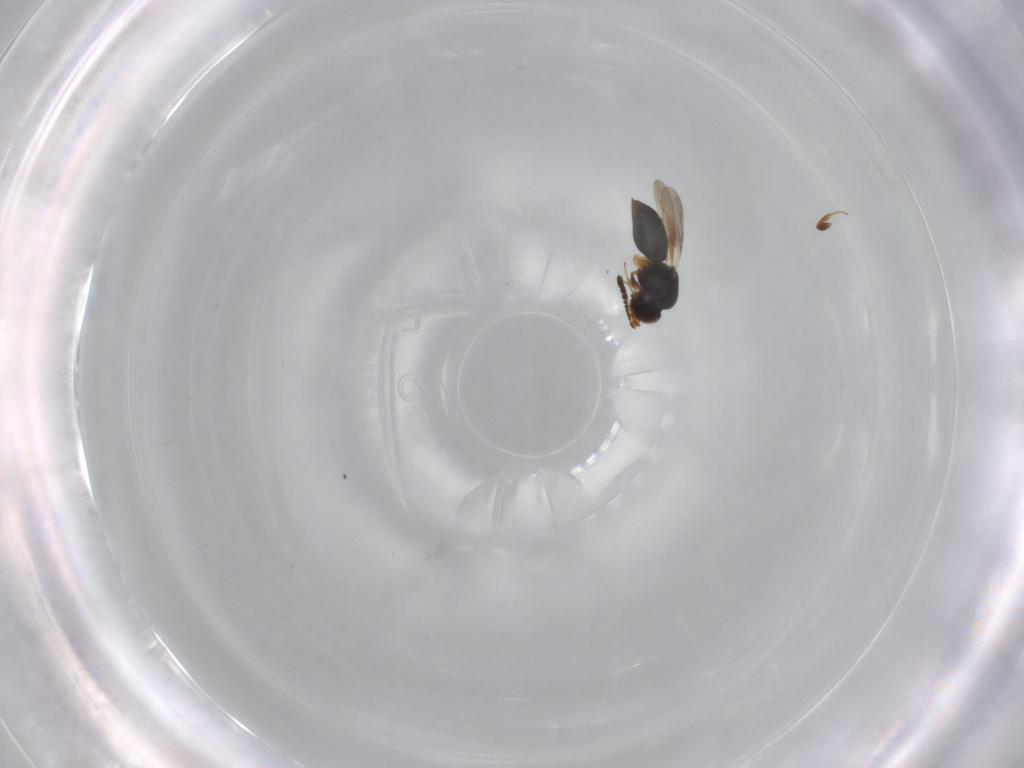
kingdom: Animalia
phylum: Arthropoda
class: Insecta
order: Hymenoptera
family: Ceraphronidae
